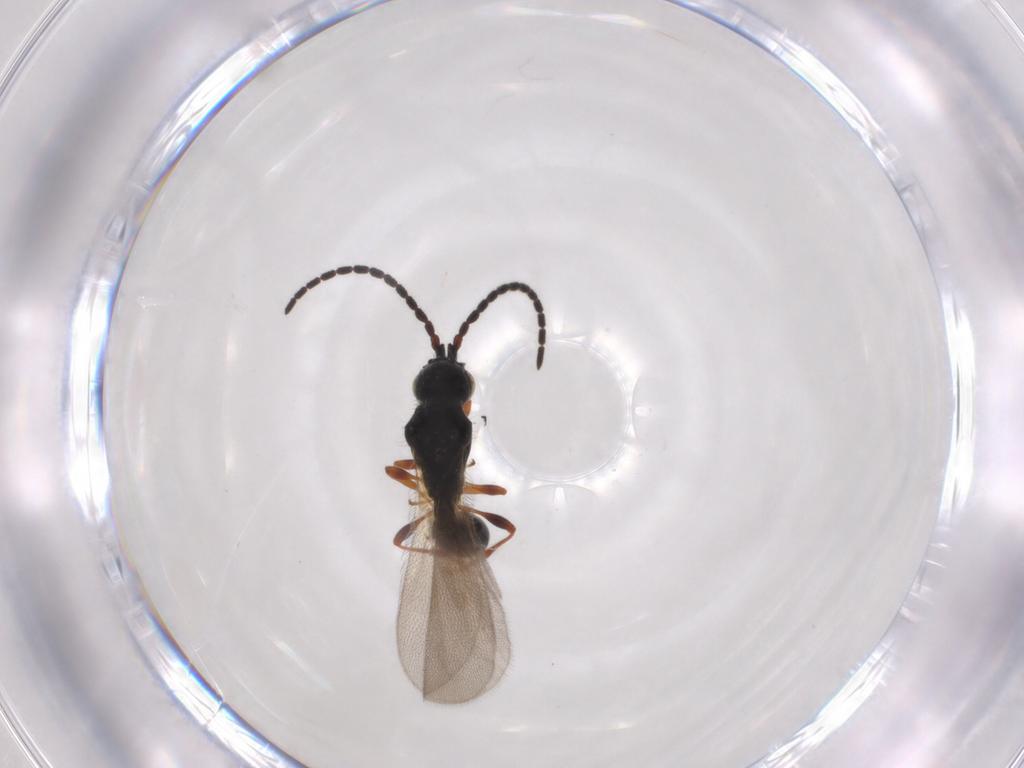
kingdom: Animalia
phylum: Arthropoda
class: Insecta
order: Hymenoptera
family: Diapriidae
